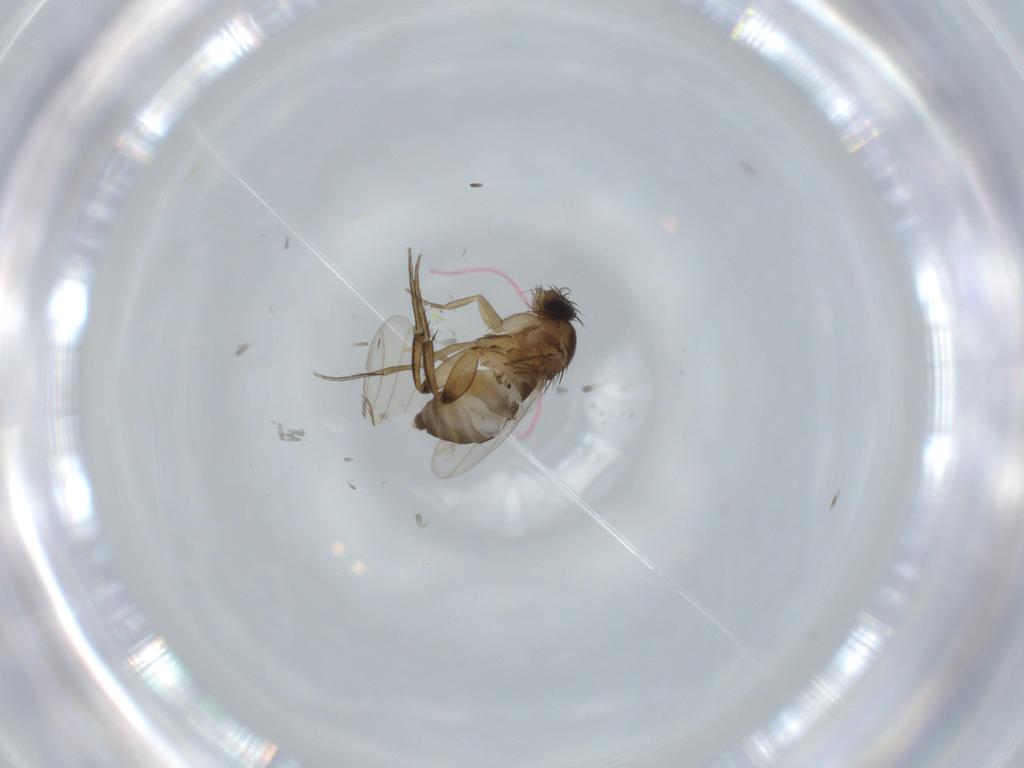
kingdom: Animalia
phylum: Arthropoda
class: Insecta
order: Diptera
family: Phoridae
